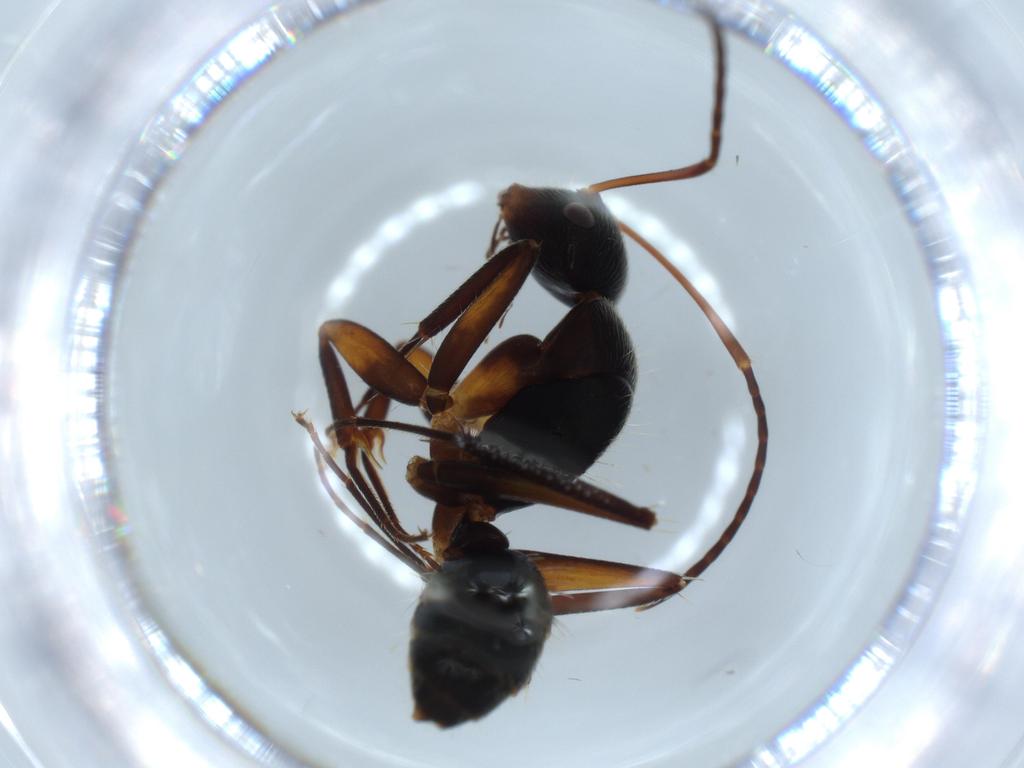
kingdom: Animalia
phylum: Arthropoda
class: Insecta
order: Hymenoptera
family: Formicidae
